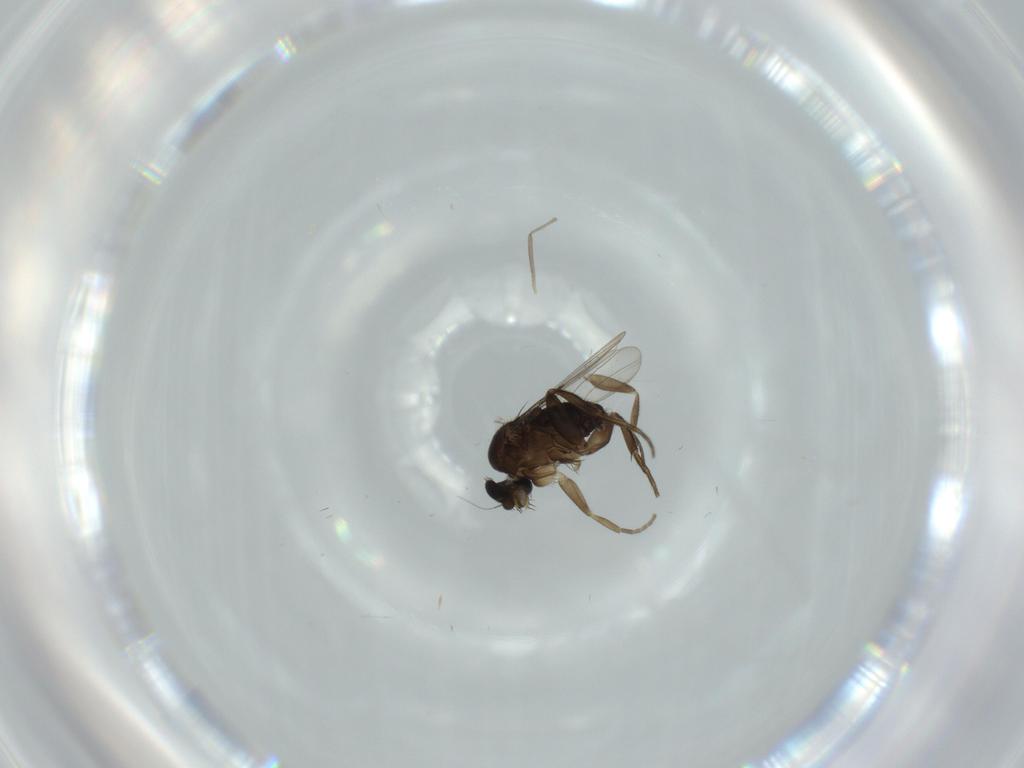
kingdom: Animalia
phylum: Arthropoda
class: Insecta
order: Diptera
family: Phoridae
